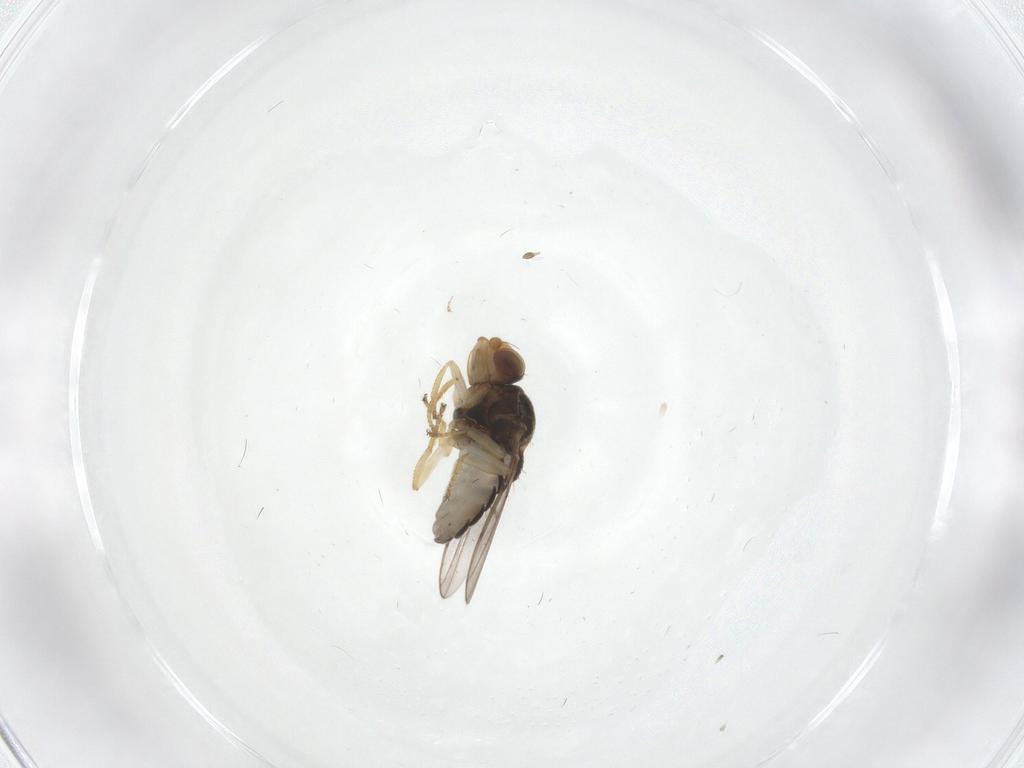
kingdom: Animalia
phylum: Arthropoda
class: Insecta
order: Diptera
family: Chloropidae
